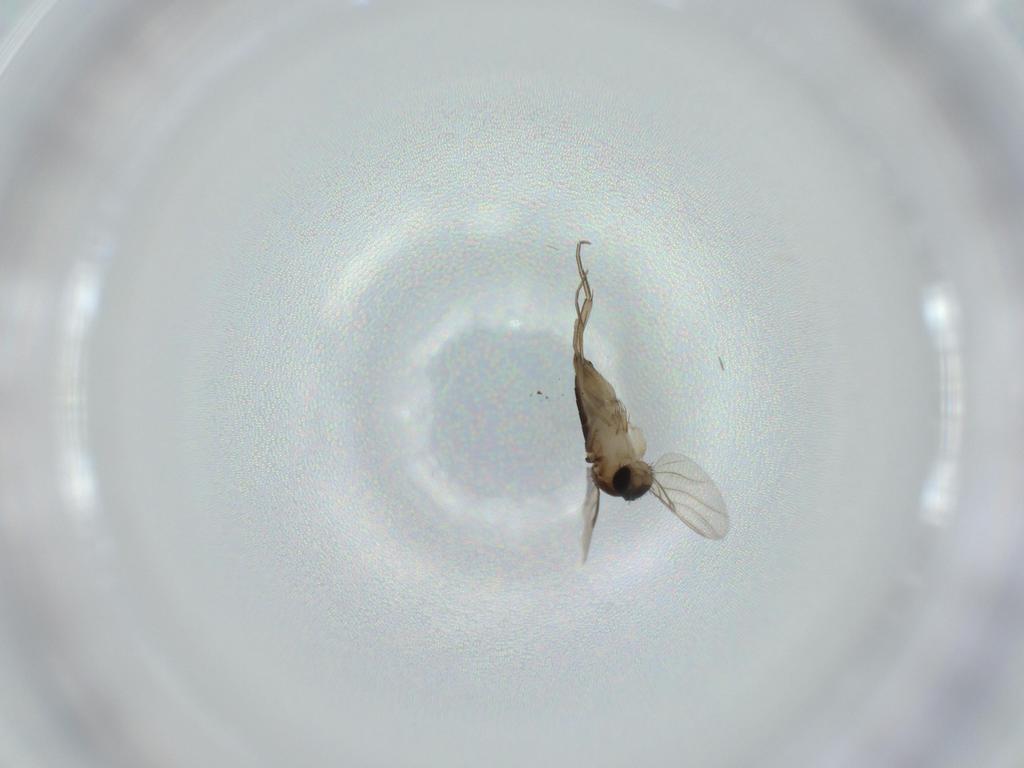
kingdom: Animalia
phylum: Arthropoda
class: Insecta
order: Diptera
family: Phoridae
